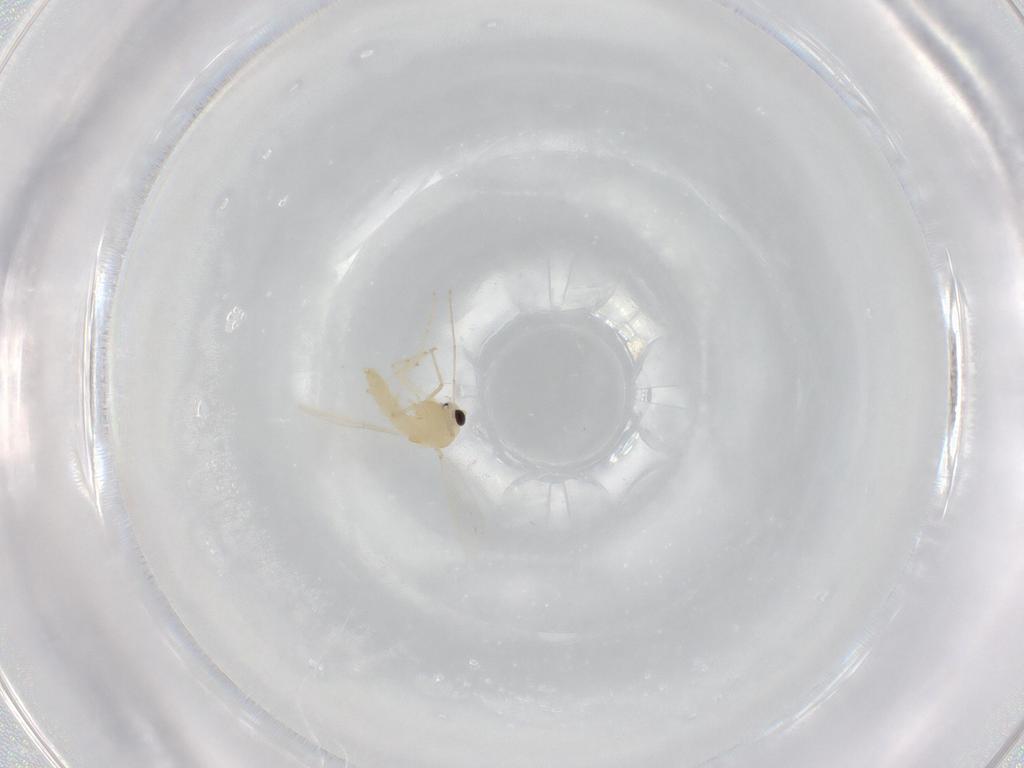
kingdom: Animalia
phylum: Arthropoda
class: Insecta
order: Diptera
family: Chironomidae
